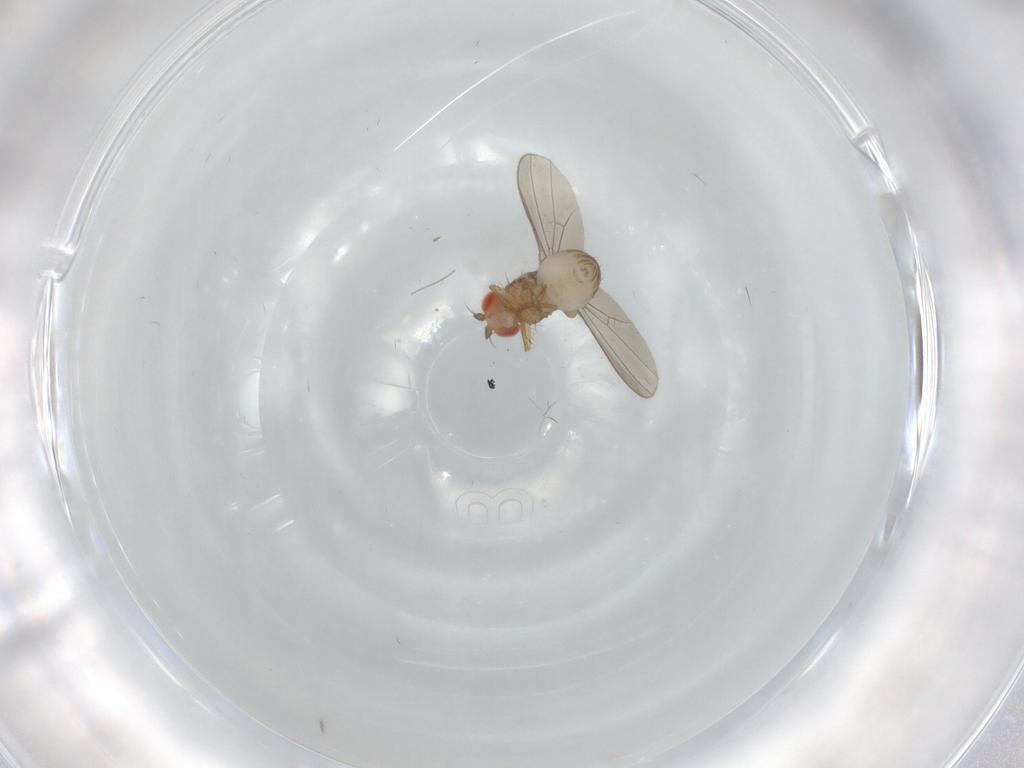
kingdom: Animalia
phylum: Arthropoda
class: Insecta
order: Diptera
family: Drosophilidae
